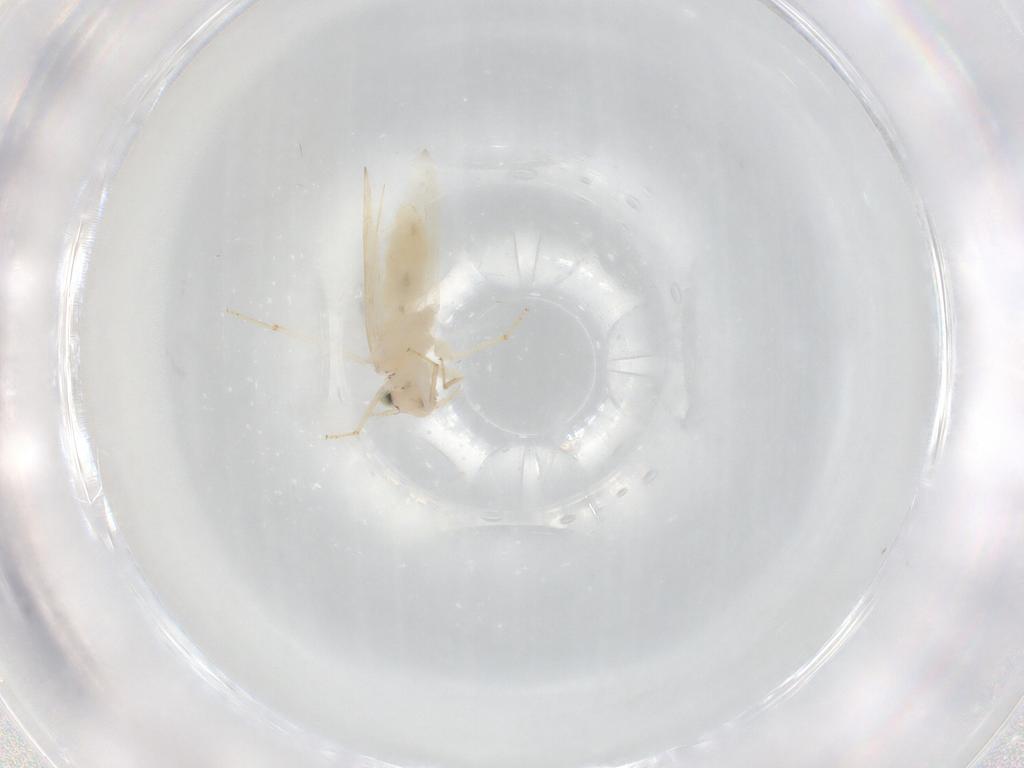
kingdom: Animalia
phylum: Arthropoda
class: Insecta
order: Psocodea
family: Lepidopsocidae
